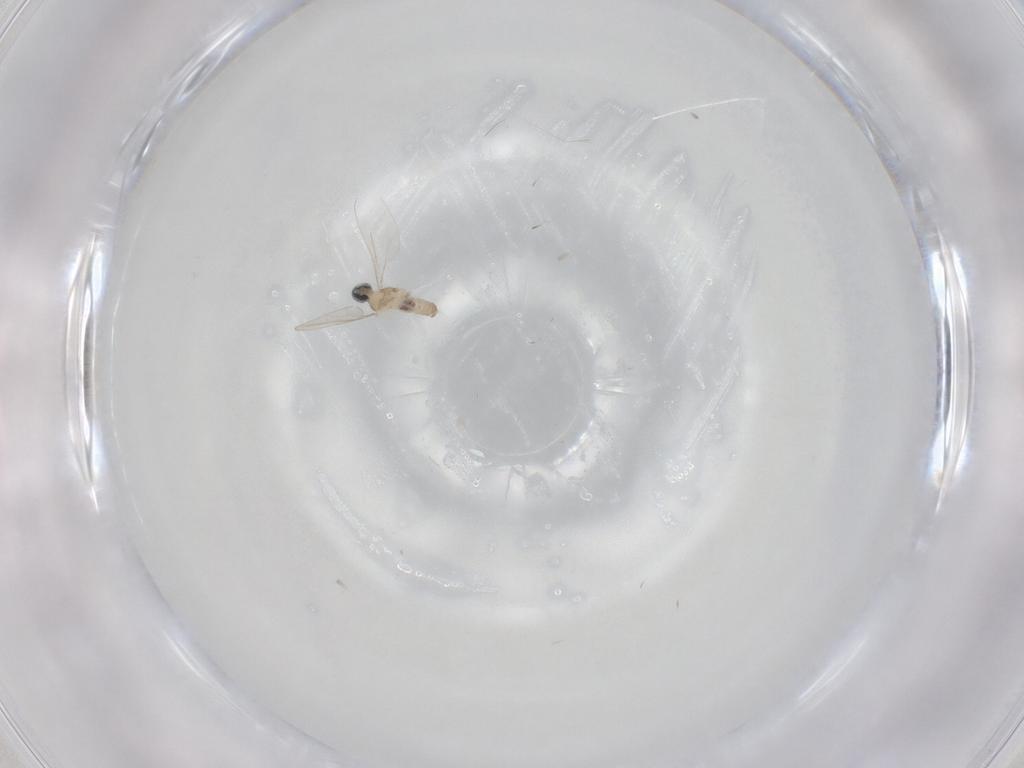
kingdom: Animalia
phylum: Arthropoda
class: Insecta
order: Diptera
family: Cecidomyiidae
